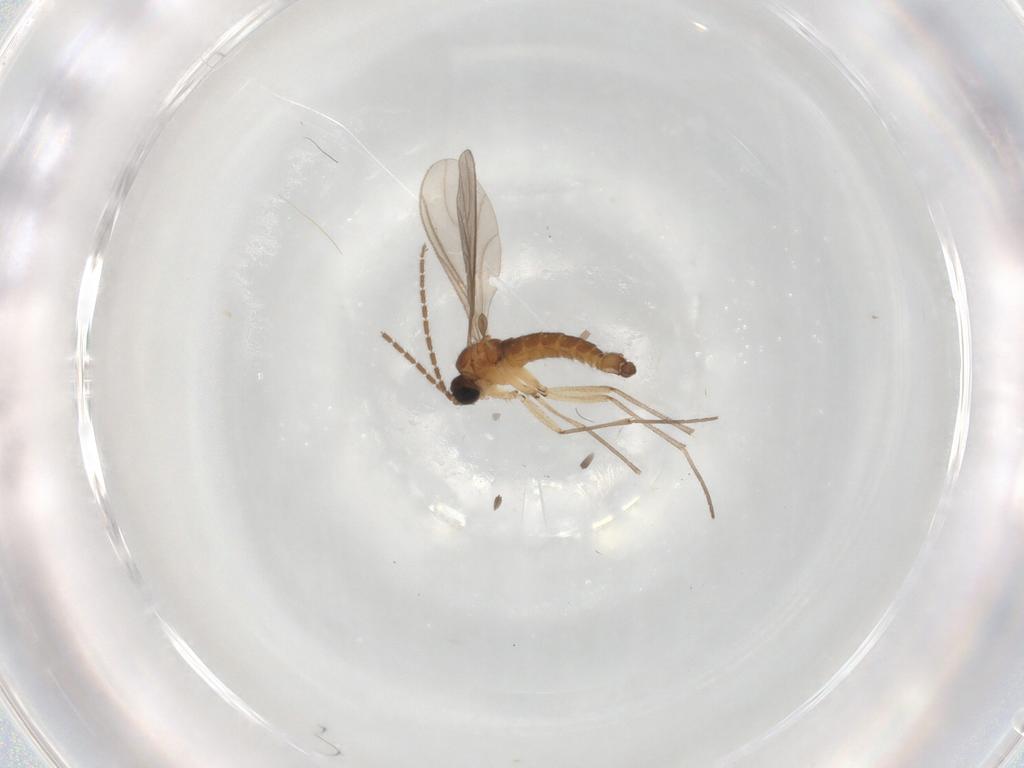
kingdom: Animalia
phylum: Arthropoda
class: Insecta
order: Diptera
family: Sciaridae
